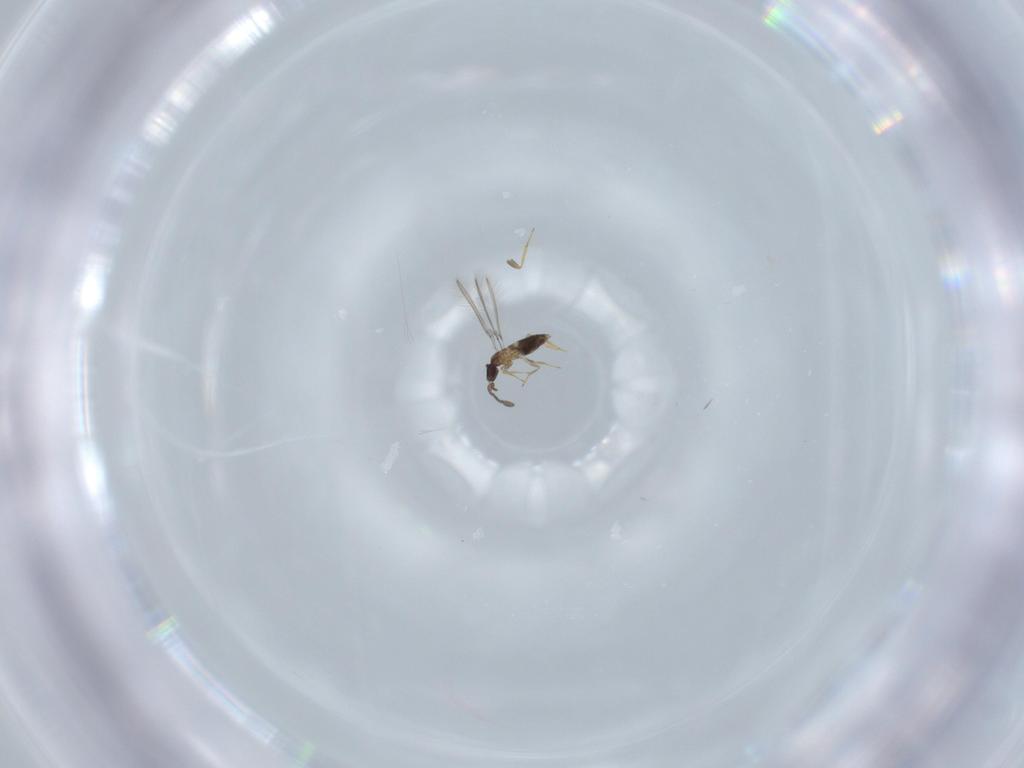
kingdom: Animalia
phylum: Arthropoda
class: Insecta
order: Hymenoptera
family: Mymaridae
